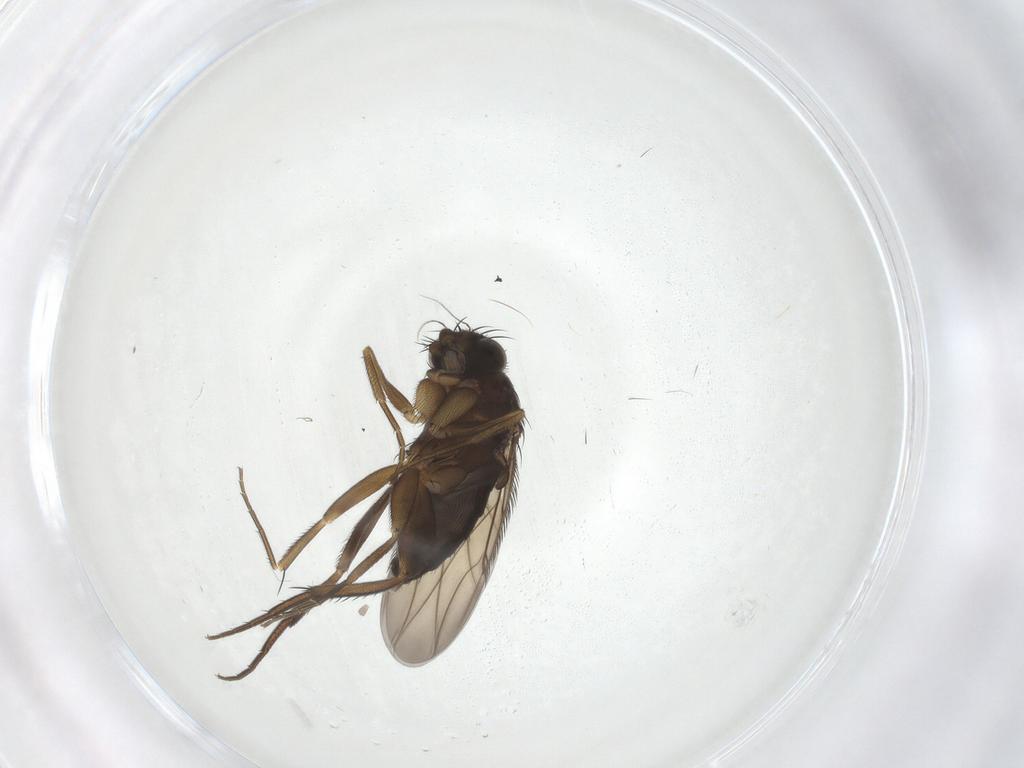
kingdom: Animalia
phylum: Arthropoda
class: Insecta
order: Diptera
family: Phoridae
